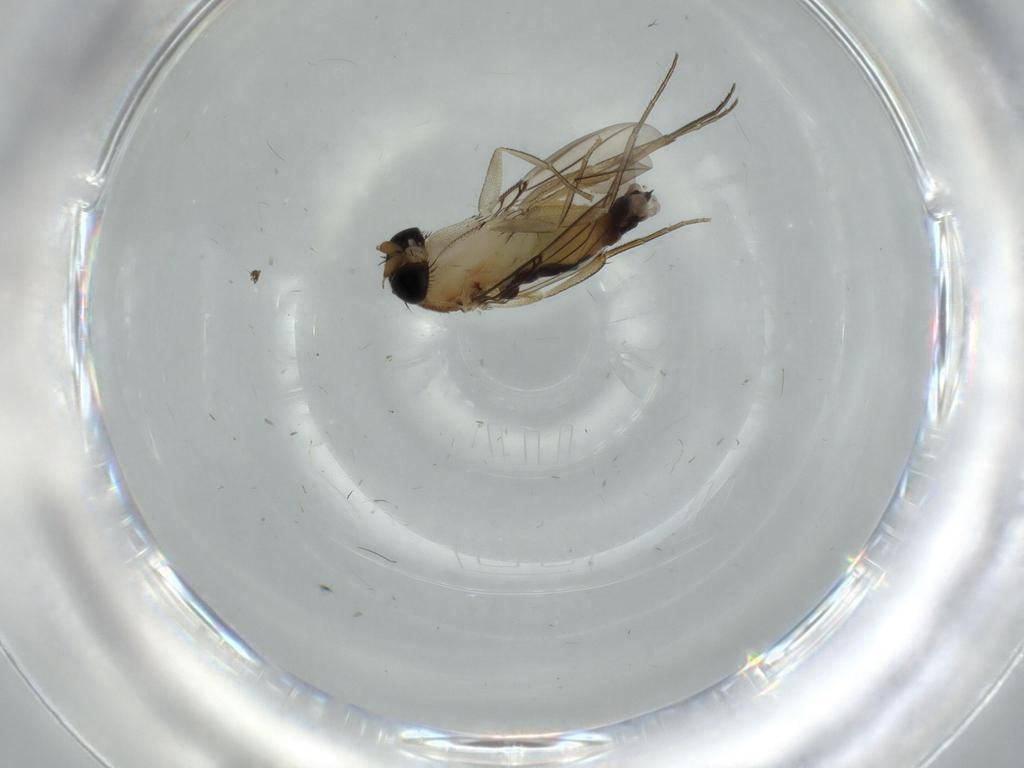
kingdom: Animalia
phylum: Arthropoda
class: Insecta
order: Diptera
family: Phoridae
